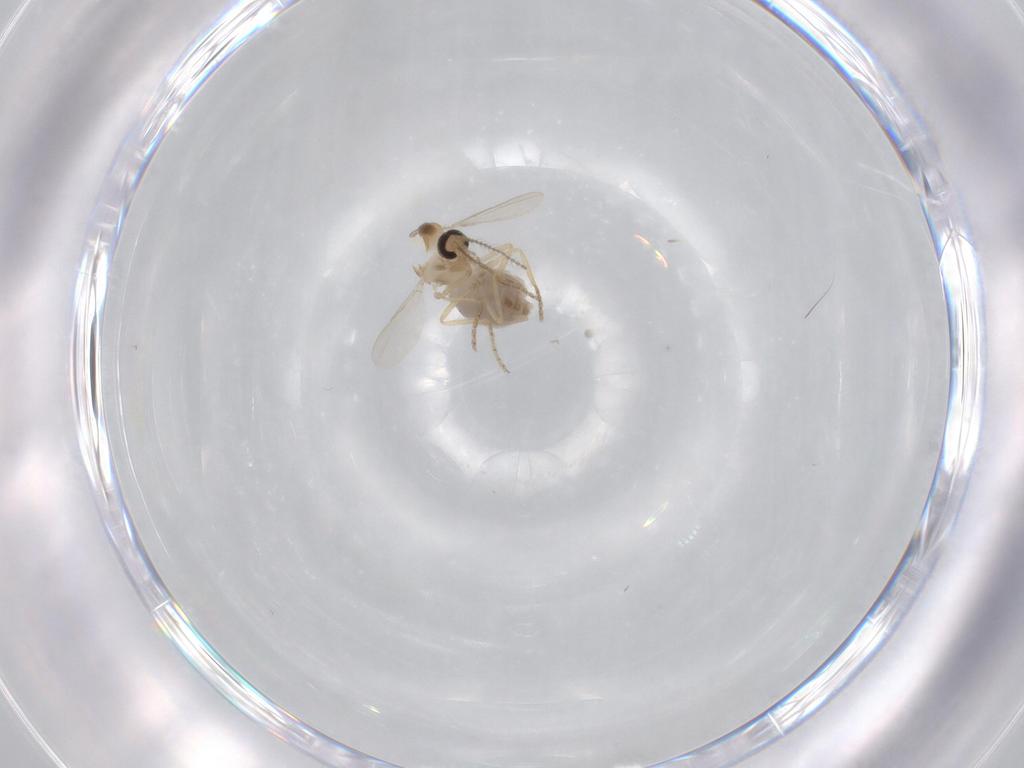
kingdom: Animalia
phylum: Arthropoda
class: Insecta
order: Diptera
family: Ceratopogonidae
